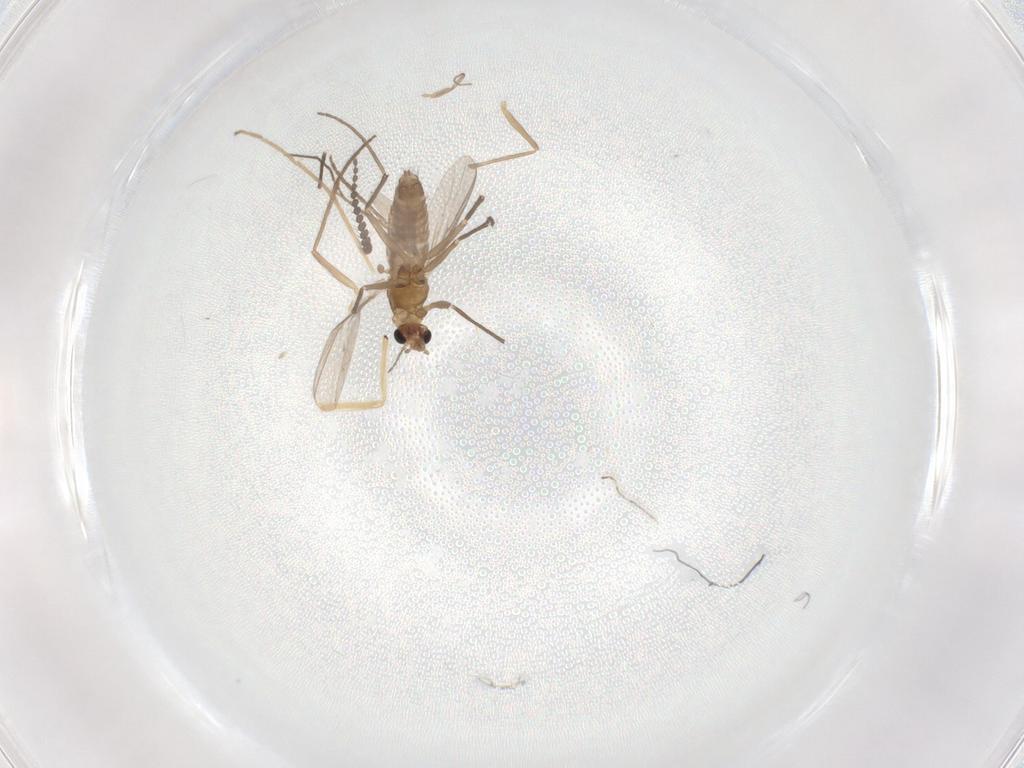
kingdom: Animalia
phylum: Arthropoda
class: Insecta
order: Diptera
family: Chironomidae
